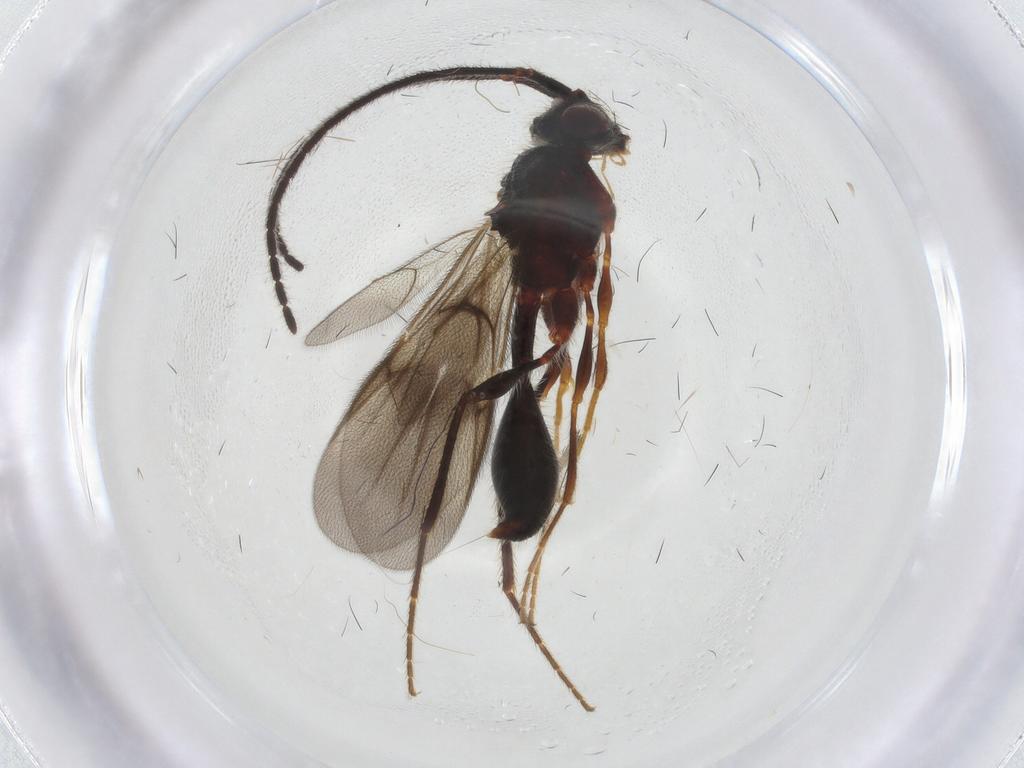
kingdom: Animalia
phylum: Arthropoda
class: Insecta
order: Hymenoptera
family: Diapriidae
